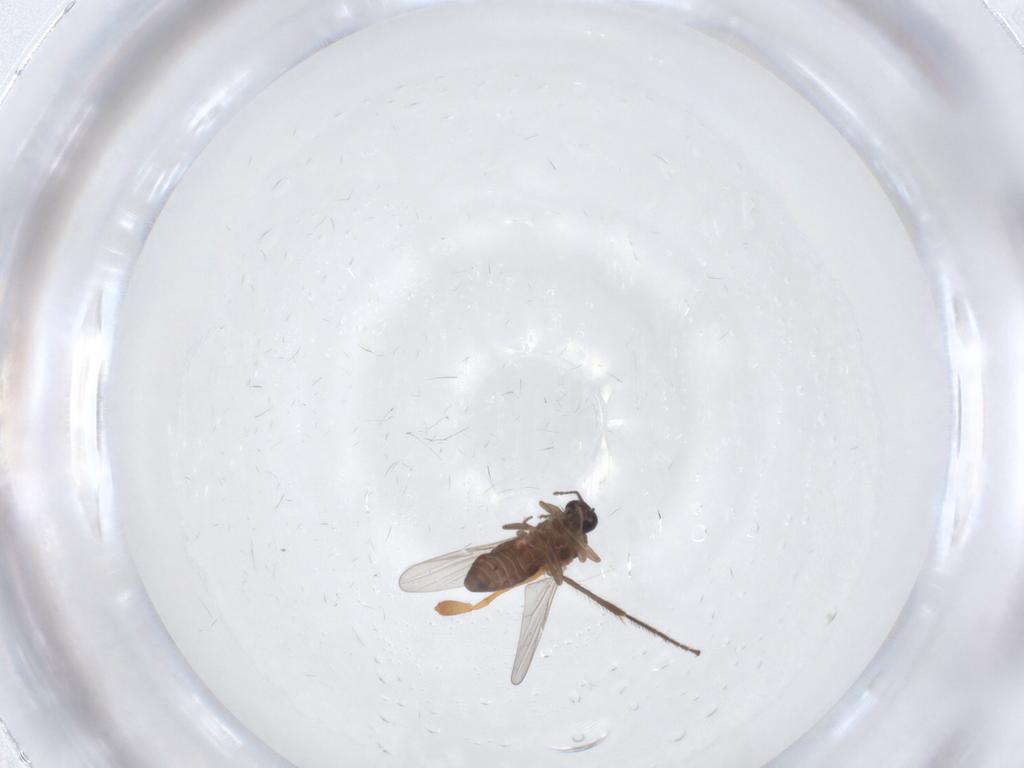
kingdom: Animalia
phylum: Arthropoda
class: Insecta
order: Diptera
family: Ceratopogonidae
